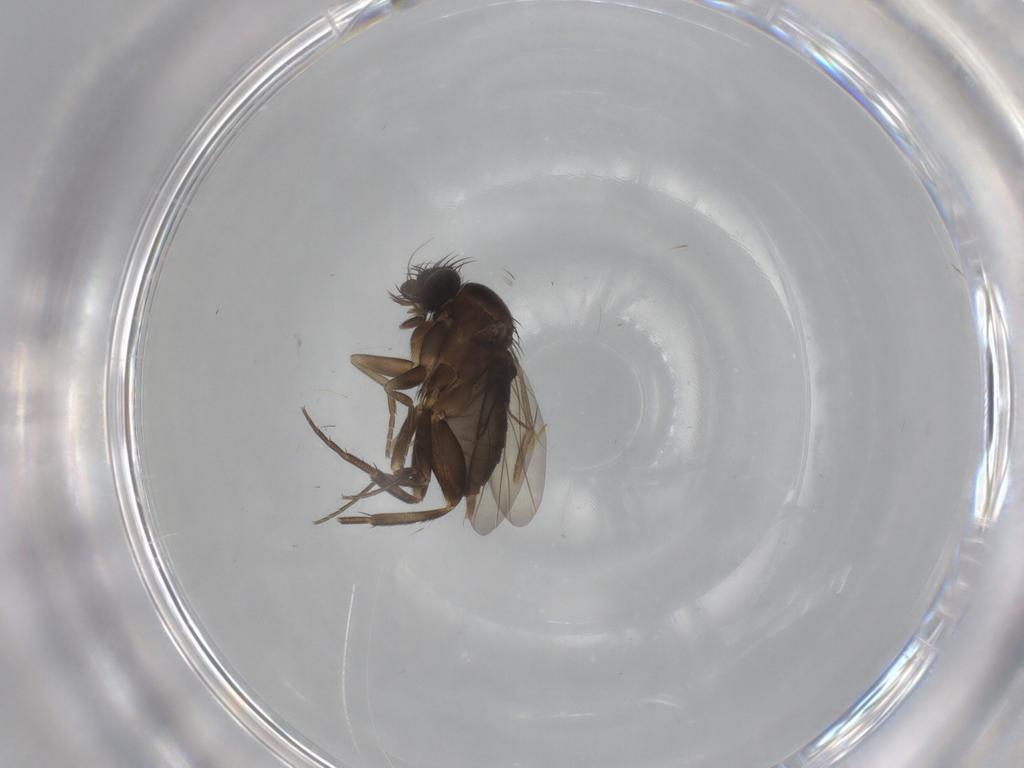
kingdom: Animalia
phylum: Arthropoda
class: Insecta
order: Diptera
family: Phoridae
